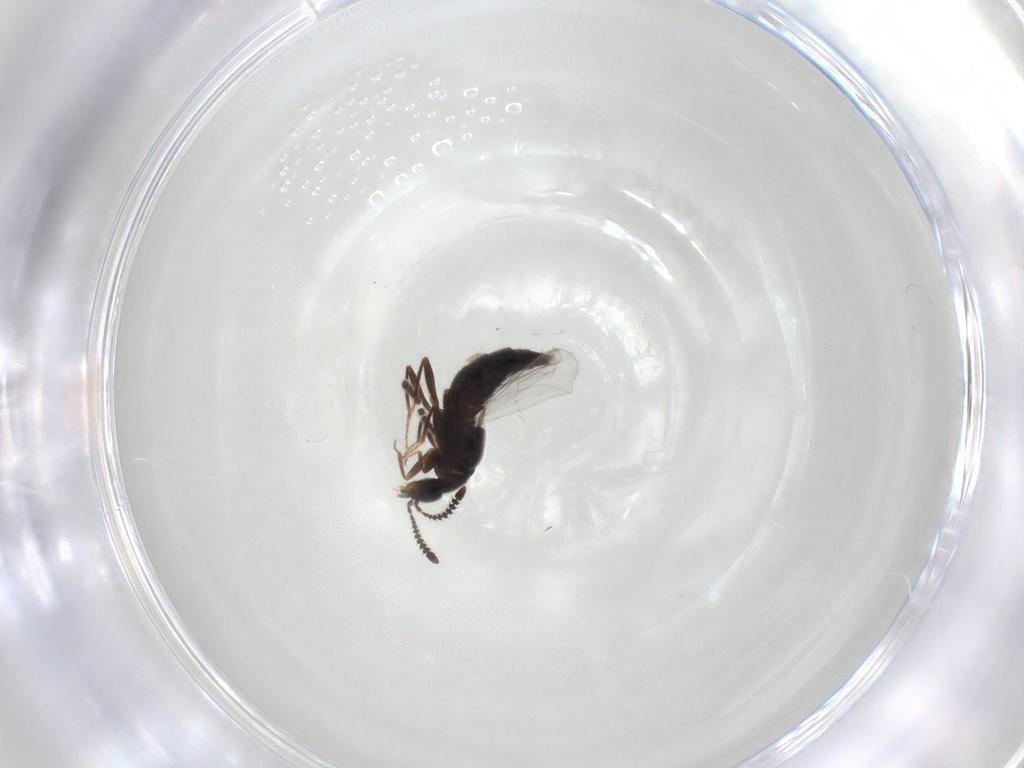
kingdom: Animalia
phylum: Arthropoda
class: Insecta
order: Coleoptera
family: Staphylinidae
